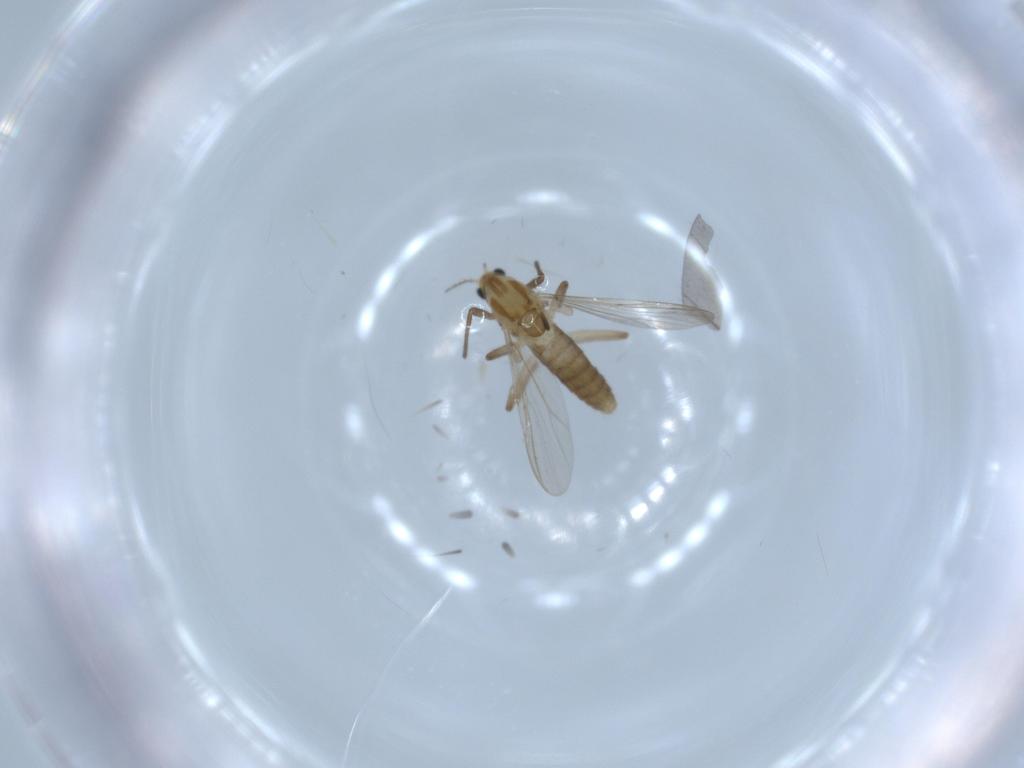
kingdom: Animalia
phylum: Arthropoda
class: Insecta
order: Diptera
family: Chironomidae
